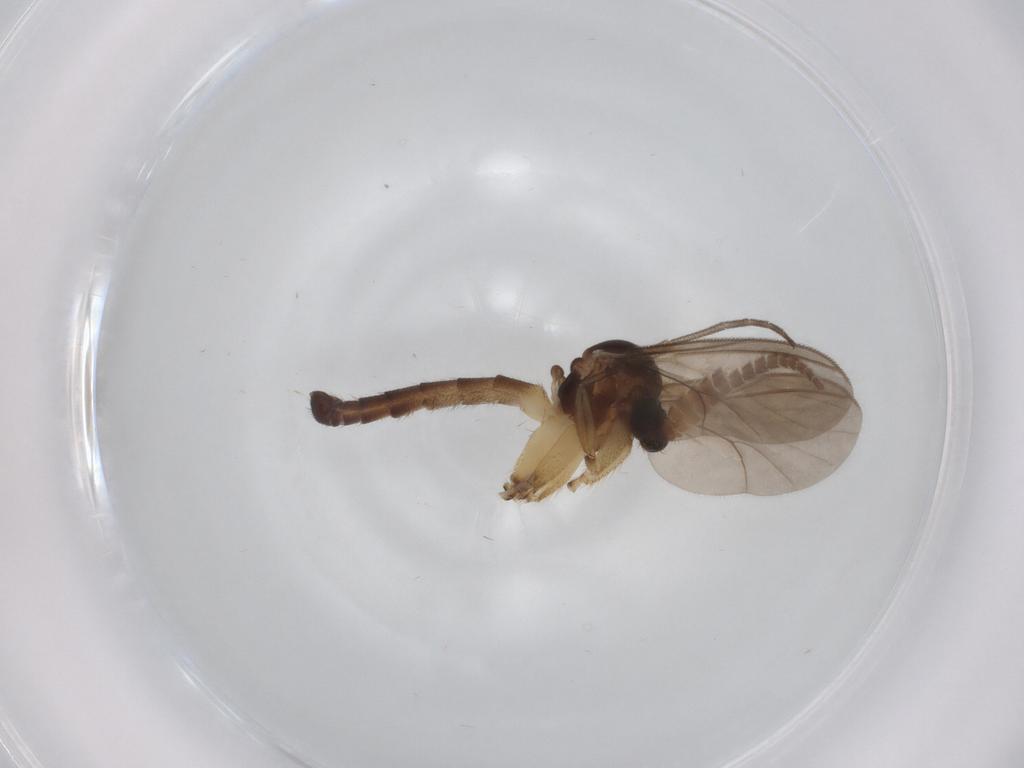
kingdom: Animalia
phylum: Arthropoda
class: Insecta
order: Diptera
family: Mycetophilidae
